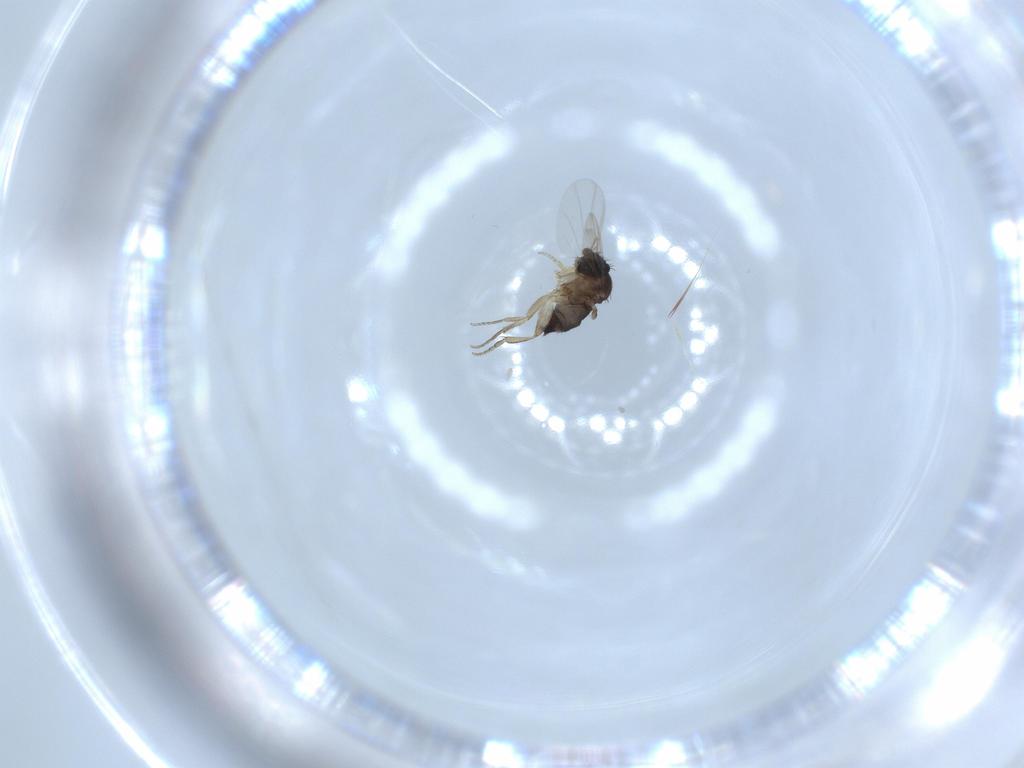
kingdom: Animalia
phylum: Arthropoda
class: Insecta
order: Diptera
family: Phoridae
